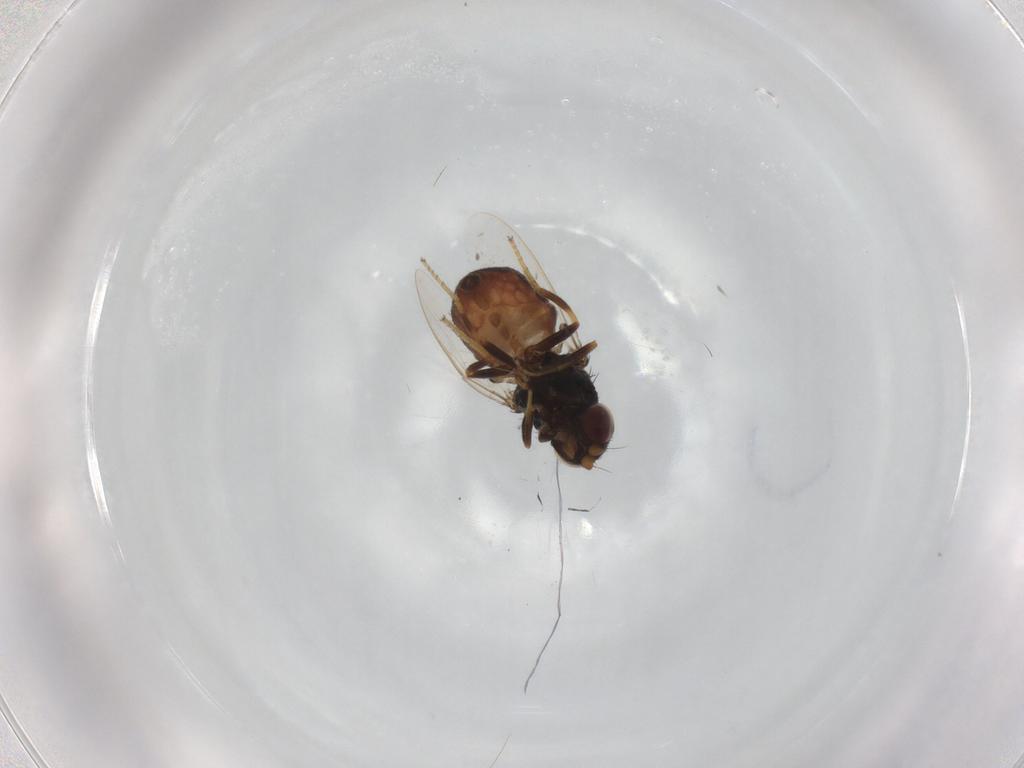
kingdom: Animalia
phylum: Arthropoda
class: Insecta
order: Diptera
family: Chloropidae
